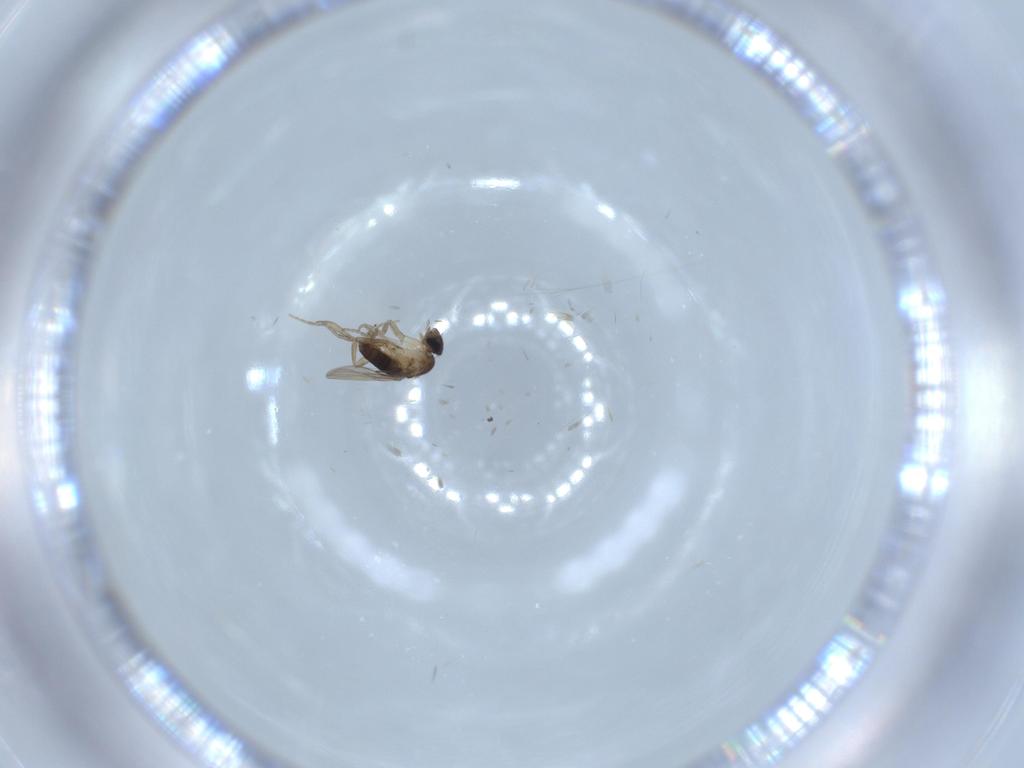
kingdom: Animalia
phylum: Arthropoda
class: Insecta
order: Diptera
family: Phoridae
